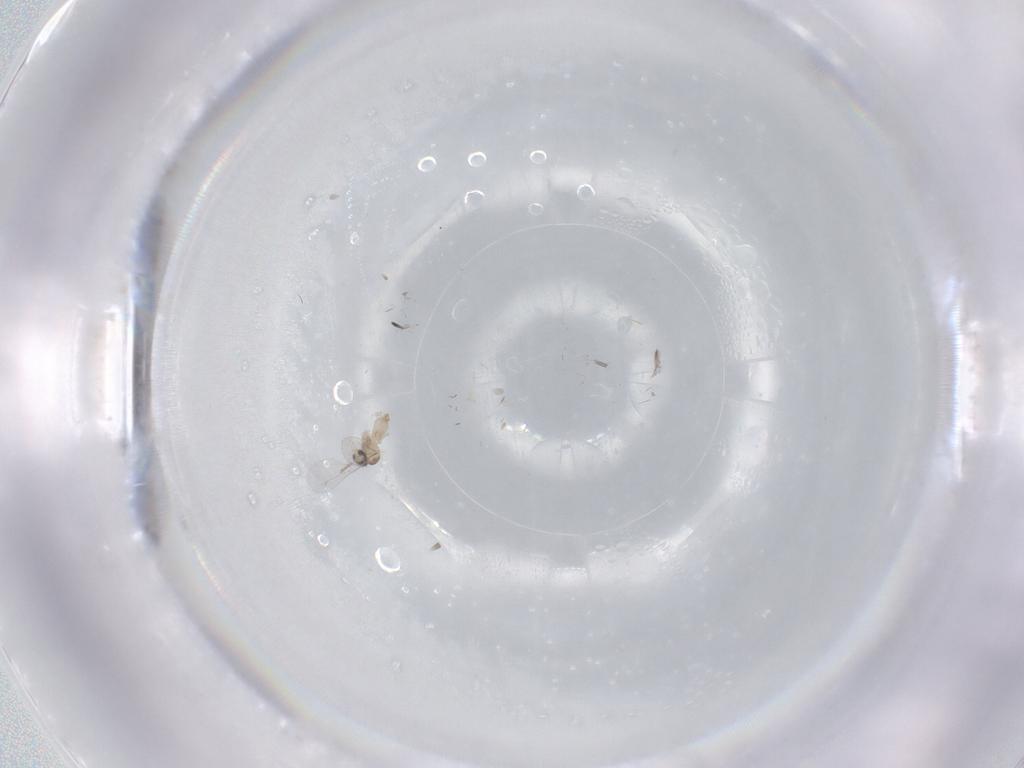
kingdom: Animalia
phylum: Arthropoda
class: Insecta
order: Diptera
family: Cecidomyiidae
